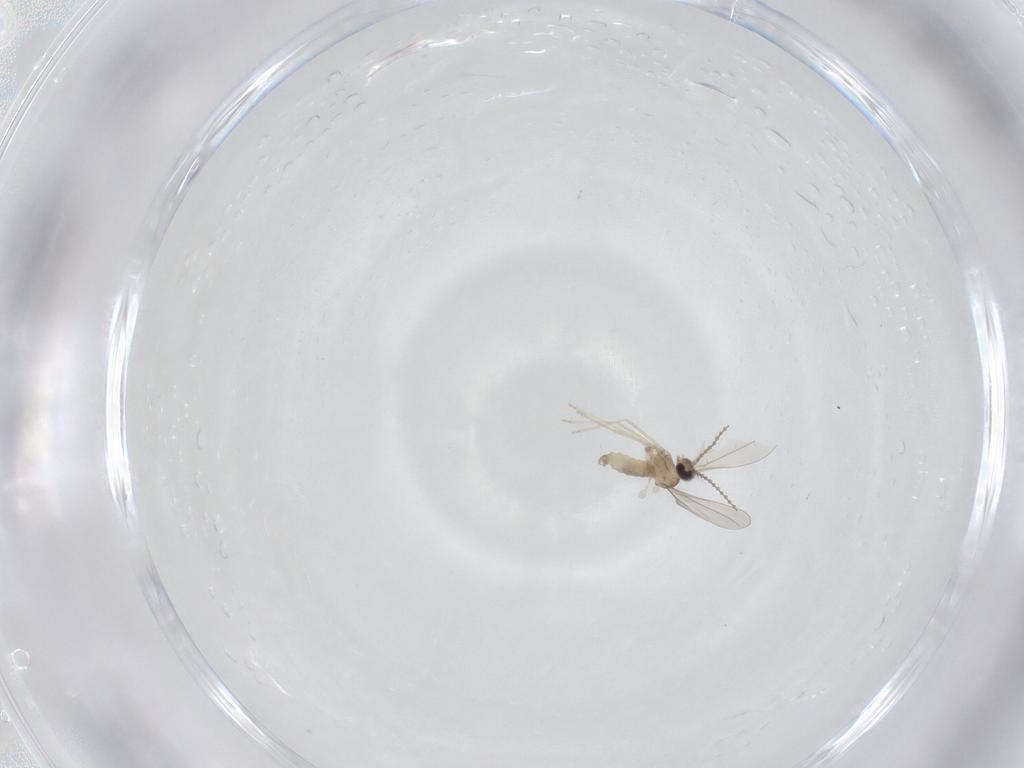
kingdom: Animalia
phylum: Arthropoda
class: Insecta
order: Diptera
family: Cecidomyiidae
